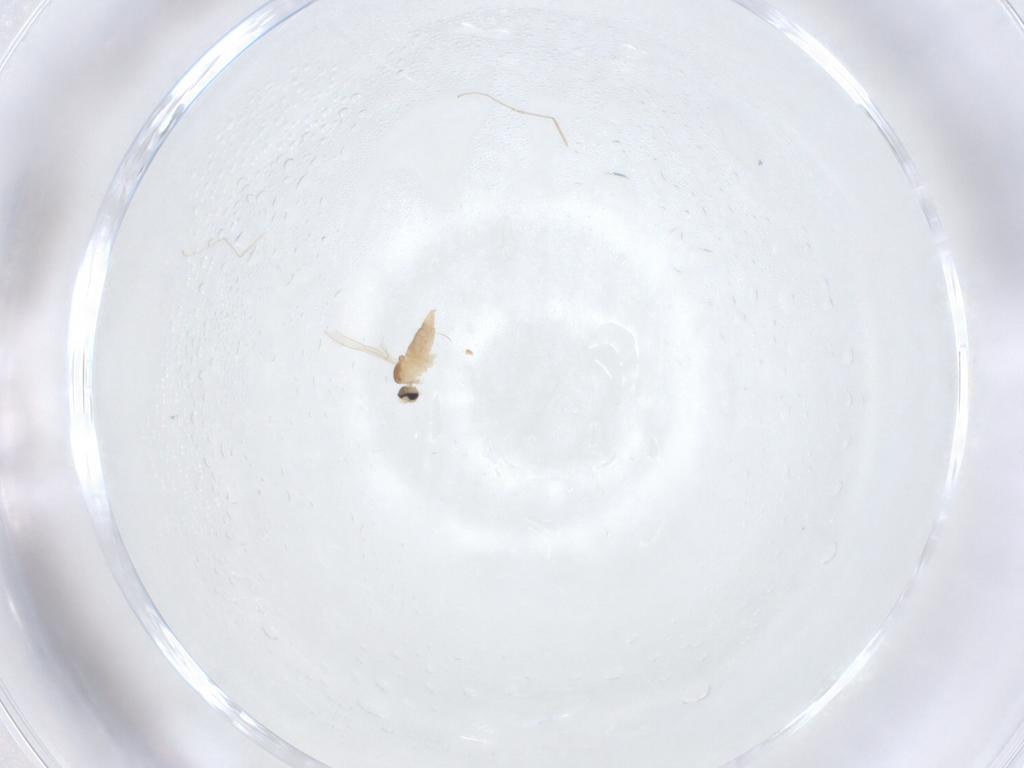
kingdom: Animalia
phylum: Arthropoda
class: Insecta
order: Diptera
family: Cecidomyiidae
